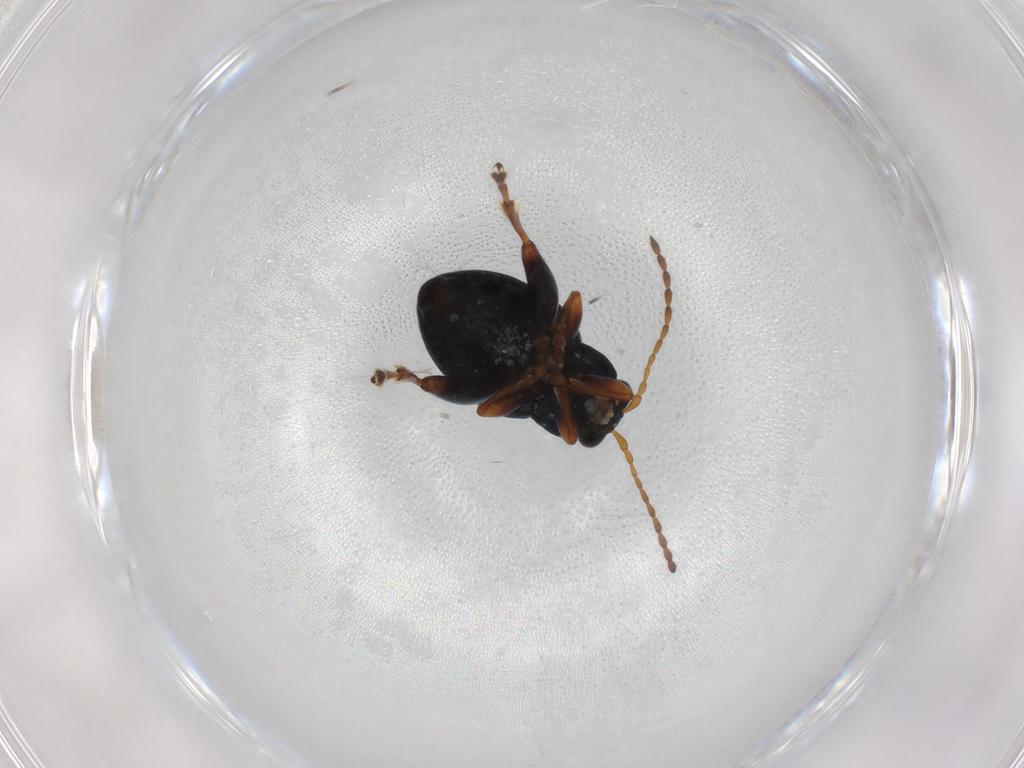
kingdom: Animalia
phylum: Arthropoda
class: Insecta
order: Coleoptera
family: Chrysomelidae
